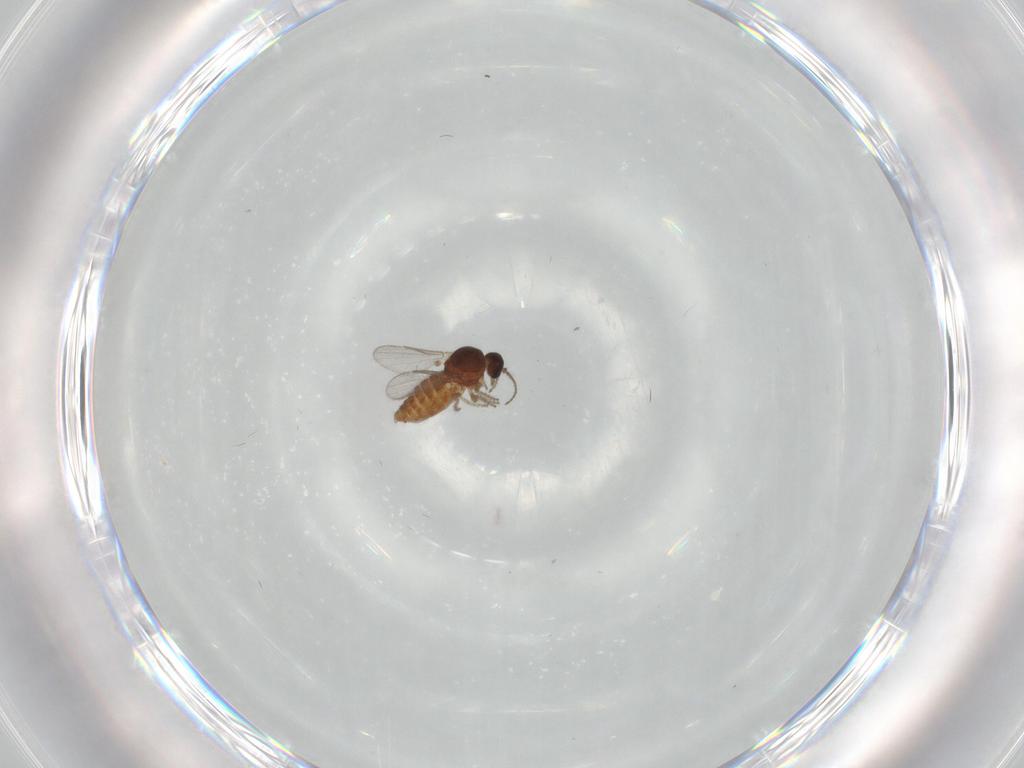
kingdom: Animalia
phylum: Arthropoda
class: Insecta
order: Diptera
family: Ceratopogonidae
